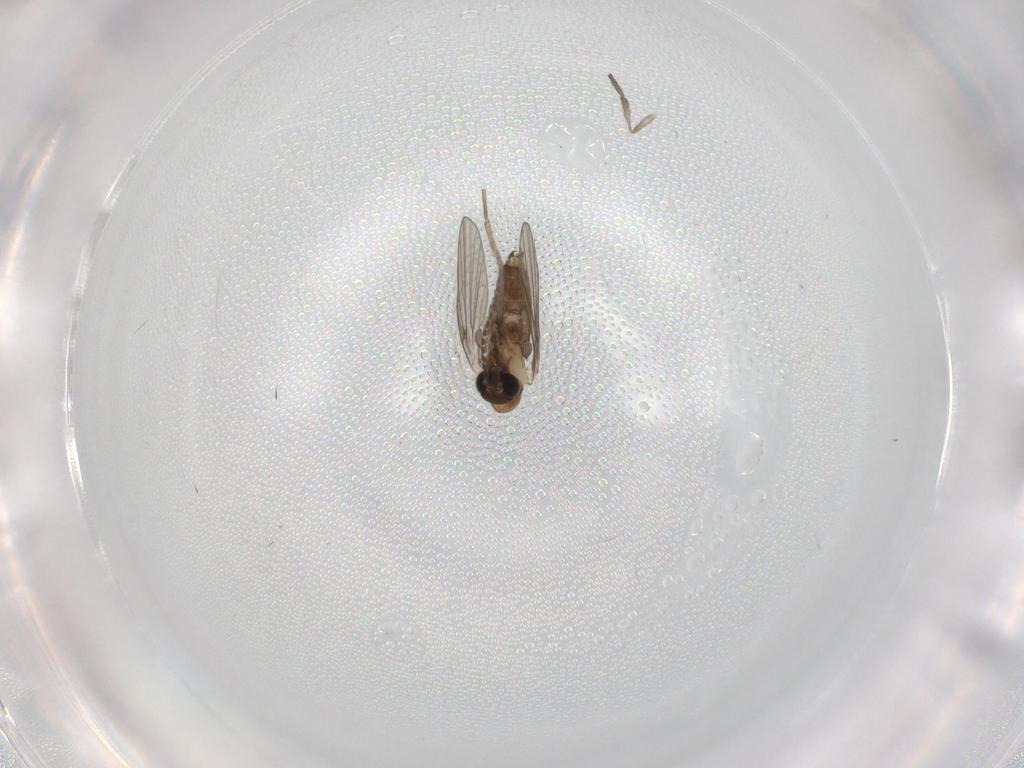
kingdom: Animalia
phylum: Arthropoda
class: Insecta
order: Diptera
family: Psychodidae
